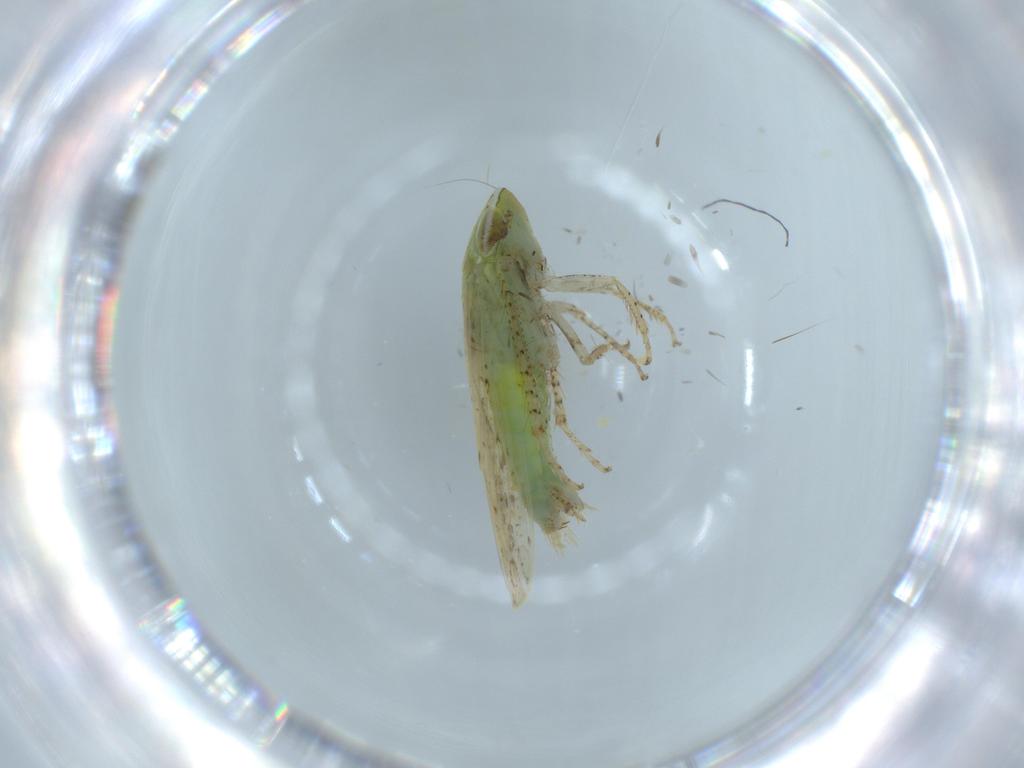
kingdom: Animalia
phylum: Arthropoda
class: Insecta
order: Hemiptera
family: Cicadellidae
